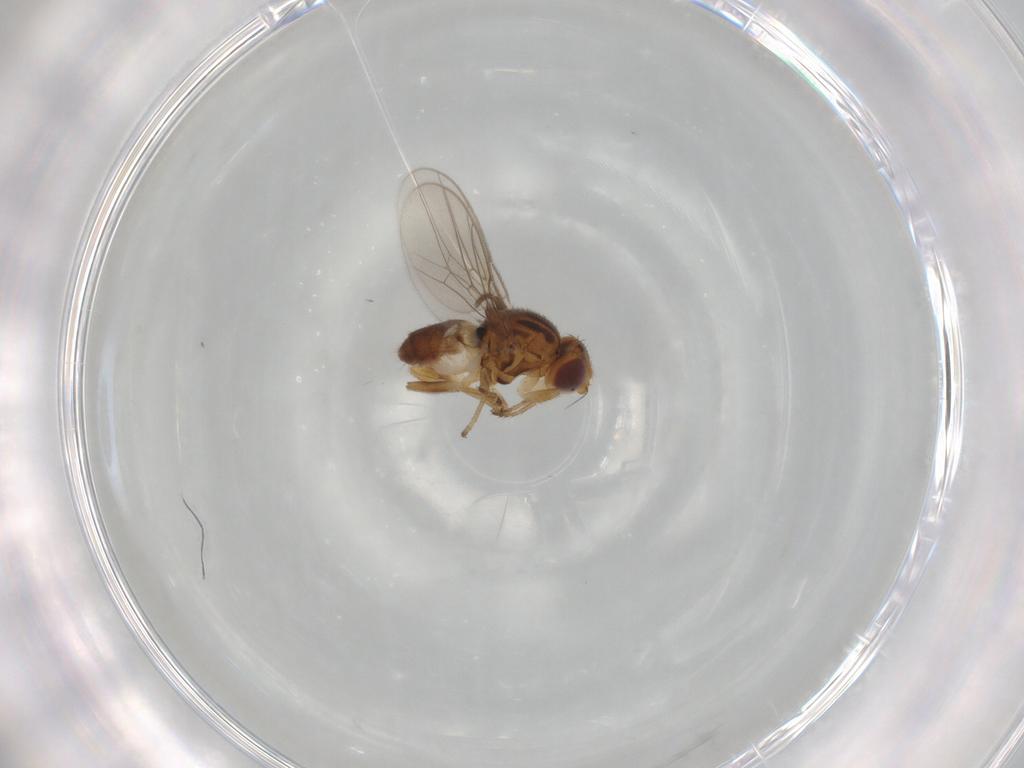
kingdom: Animalia
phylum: Arthropoda
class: Insecta
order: Diptera
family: Chloropidae
